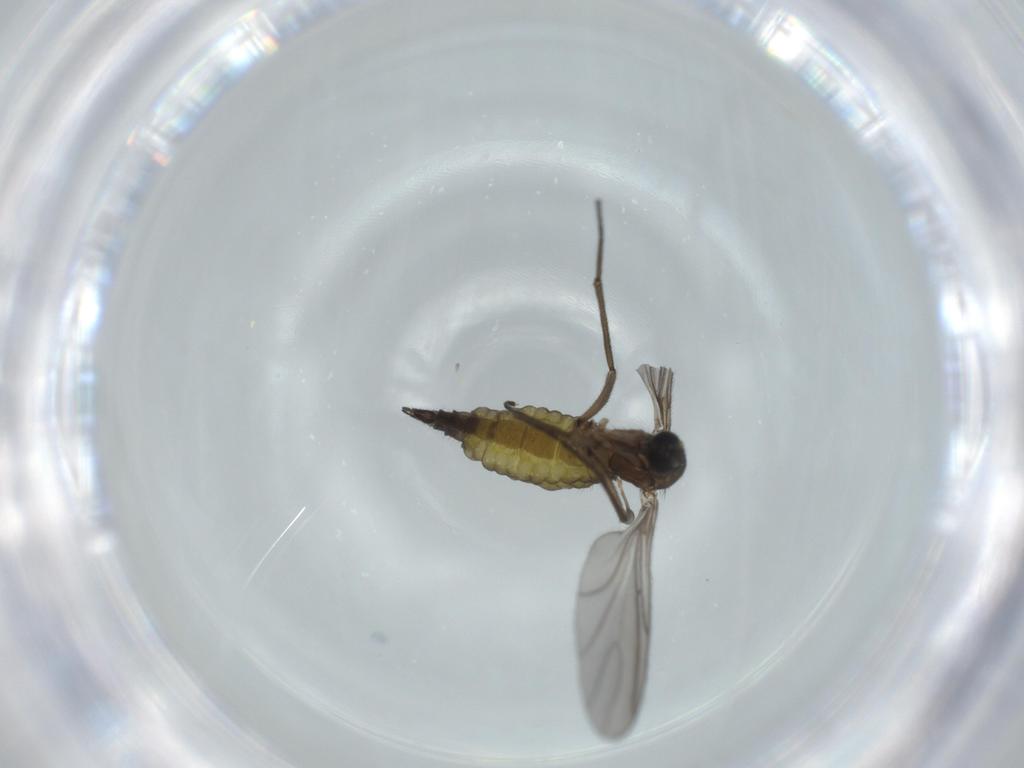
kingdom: Animalia
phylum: Arthropoda
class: Insecta
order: Diptera
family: Sciaridae
